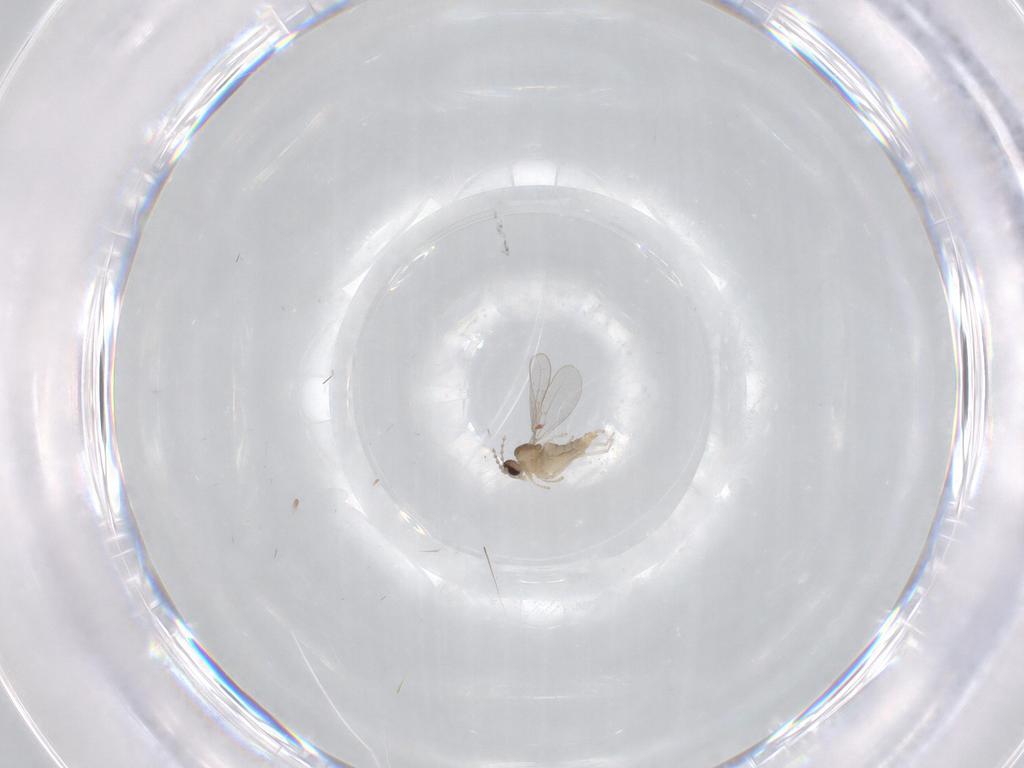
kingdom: Animalia
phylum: Arthropoda
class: Insecta
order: Diptera
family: Cecidomyiidae
